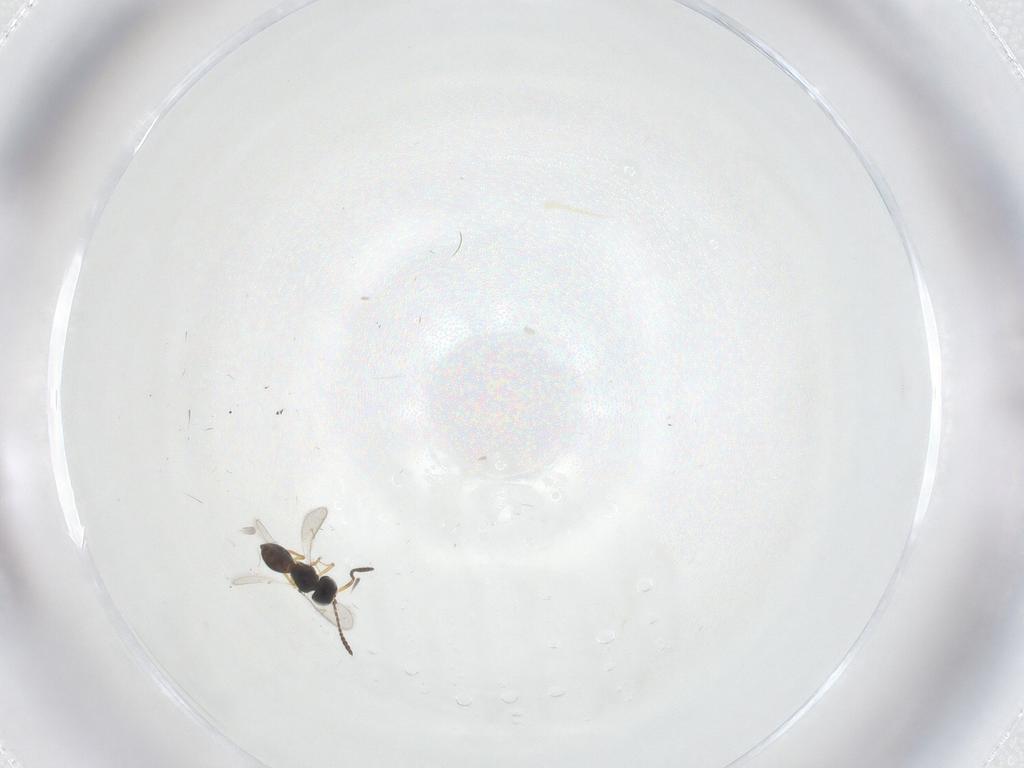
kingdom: Animalia
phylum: Arthropoda
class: Insecta
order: Hymenoptera
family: Scelionidae
